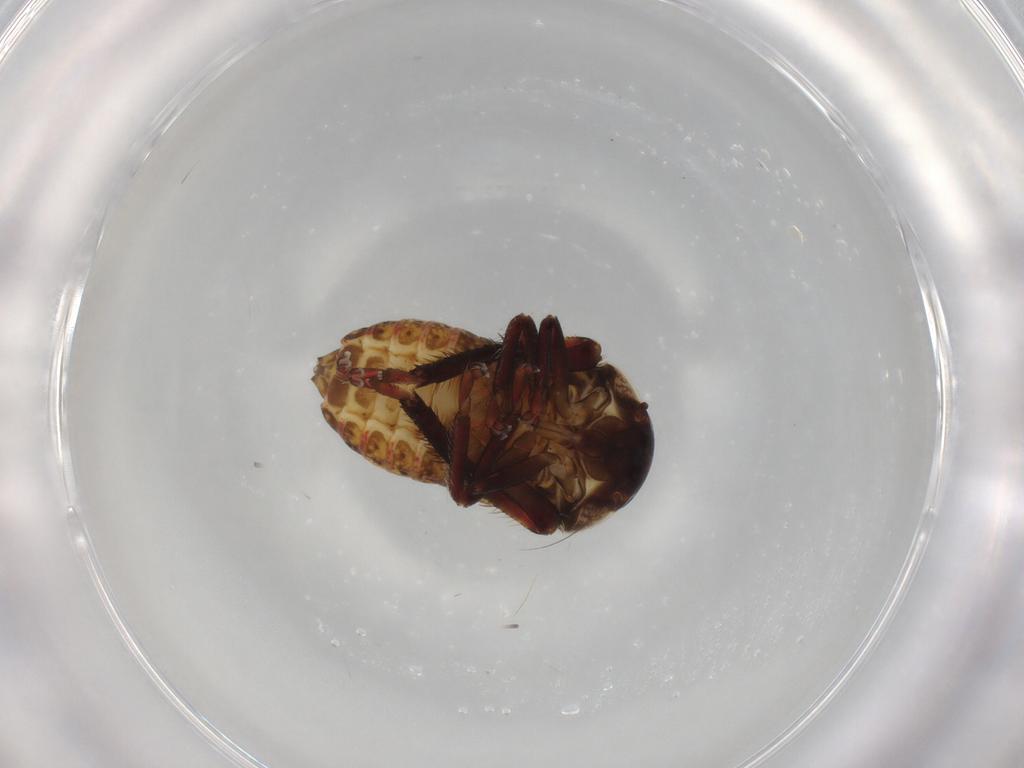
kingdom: Animalia
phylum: Arthropoda
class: Insecta
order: Hemiptera
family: Cicadellidae
